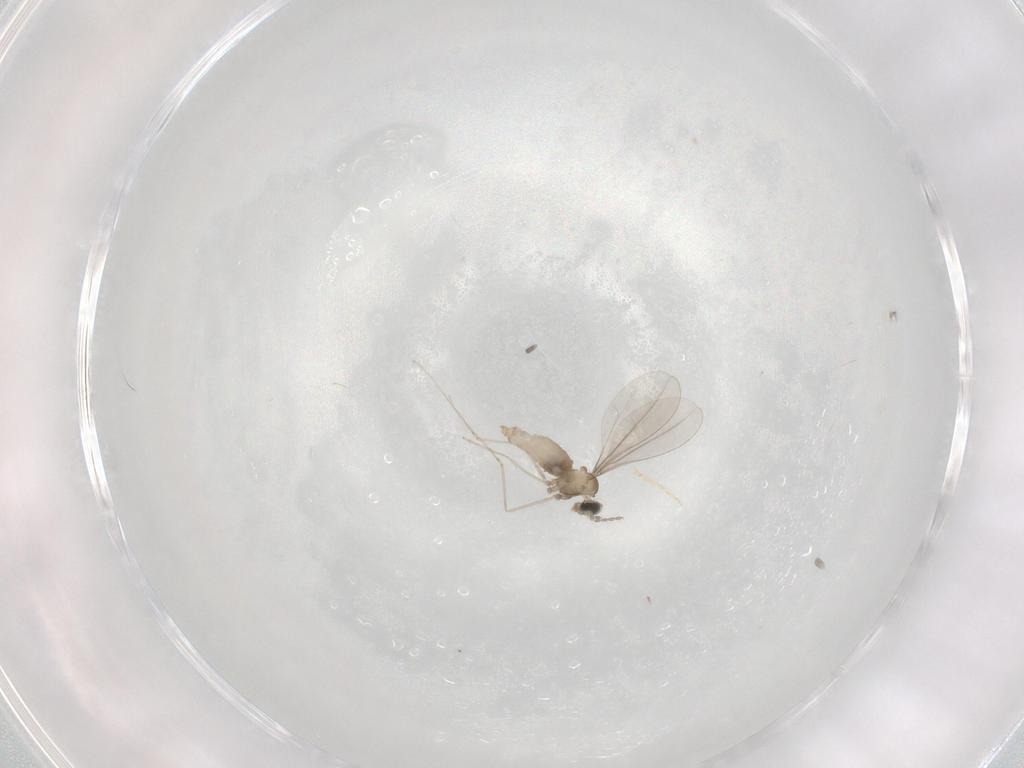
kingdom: Animalia
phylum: Arthropoda
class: Insecta
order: Diptera
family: Cecidomyiidae
